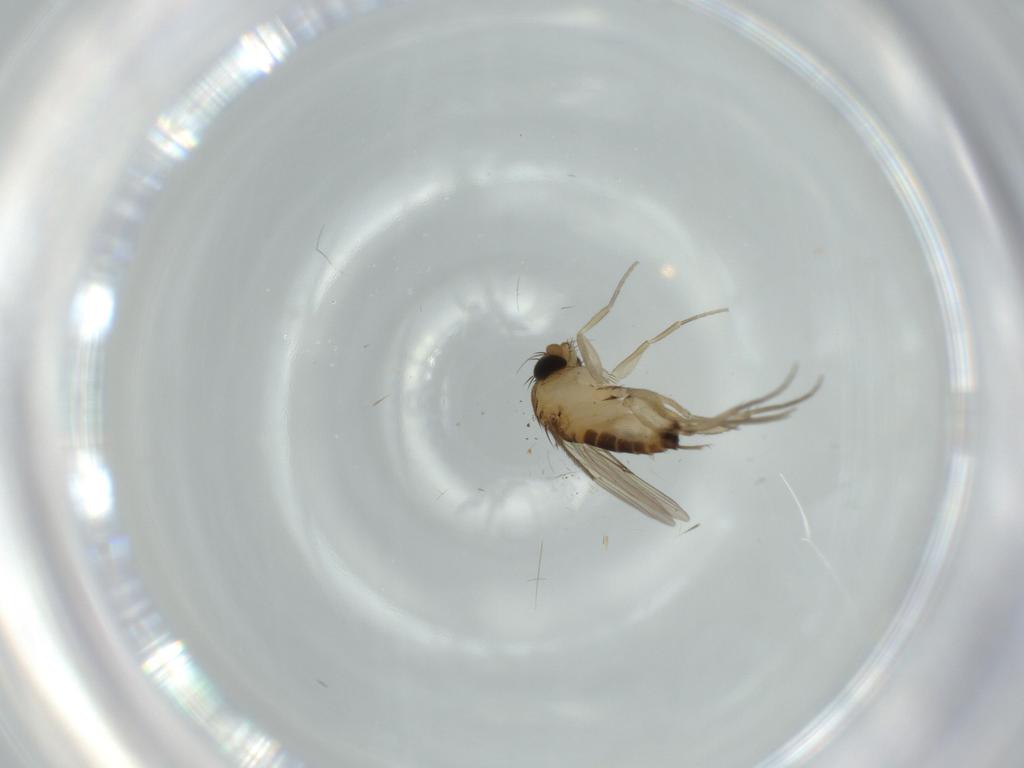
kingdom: Animalia
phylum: Arthropoda
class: Insecta
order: Diptera
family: Phoridae
